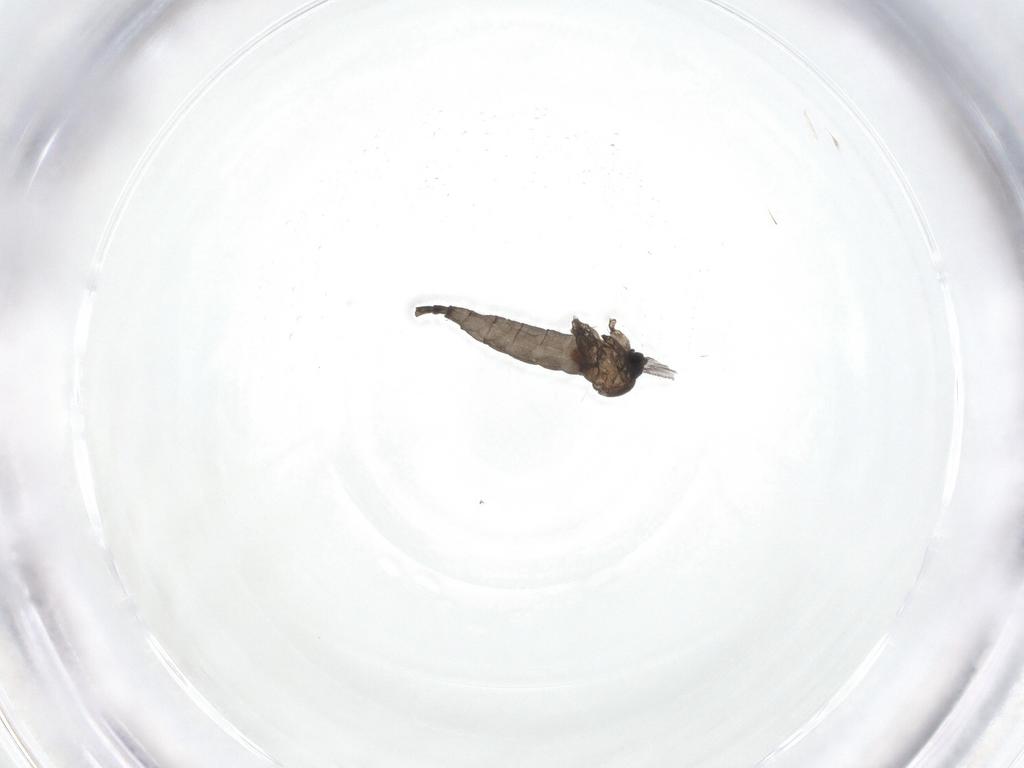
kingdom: Animalia
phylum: Arthropoda
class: Insecta
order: Diptera
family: Sciaridae
